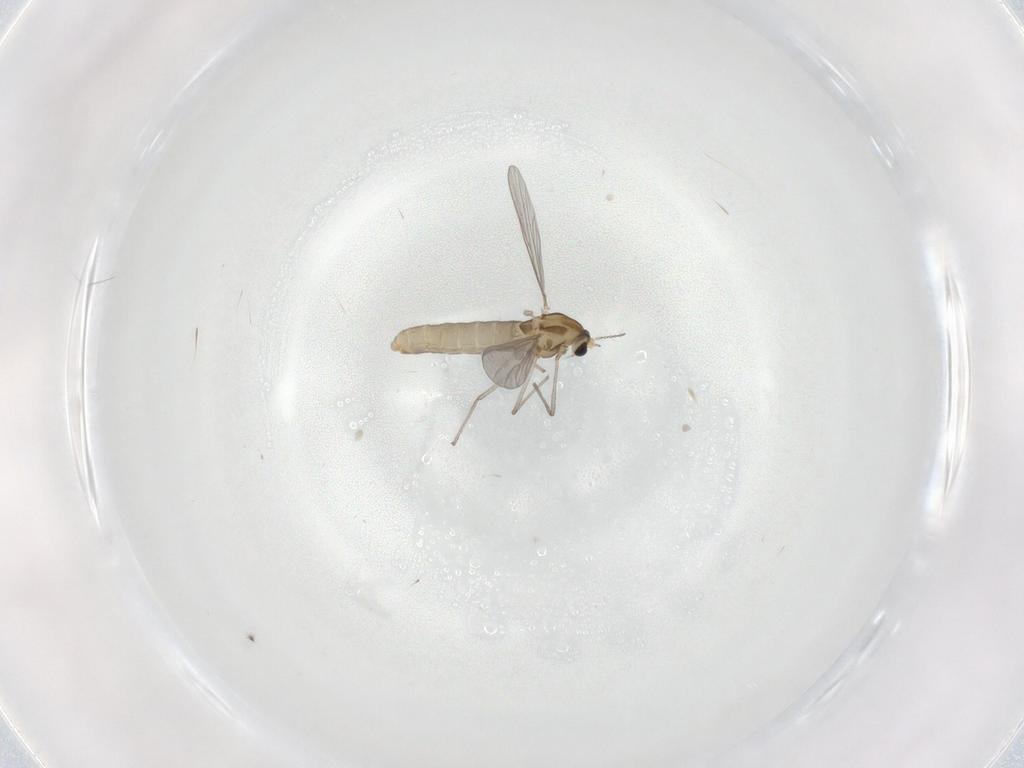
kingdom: Animalia
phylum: Arthropoda
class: Insecta
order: Diptera
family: Chironomidae
